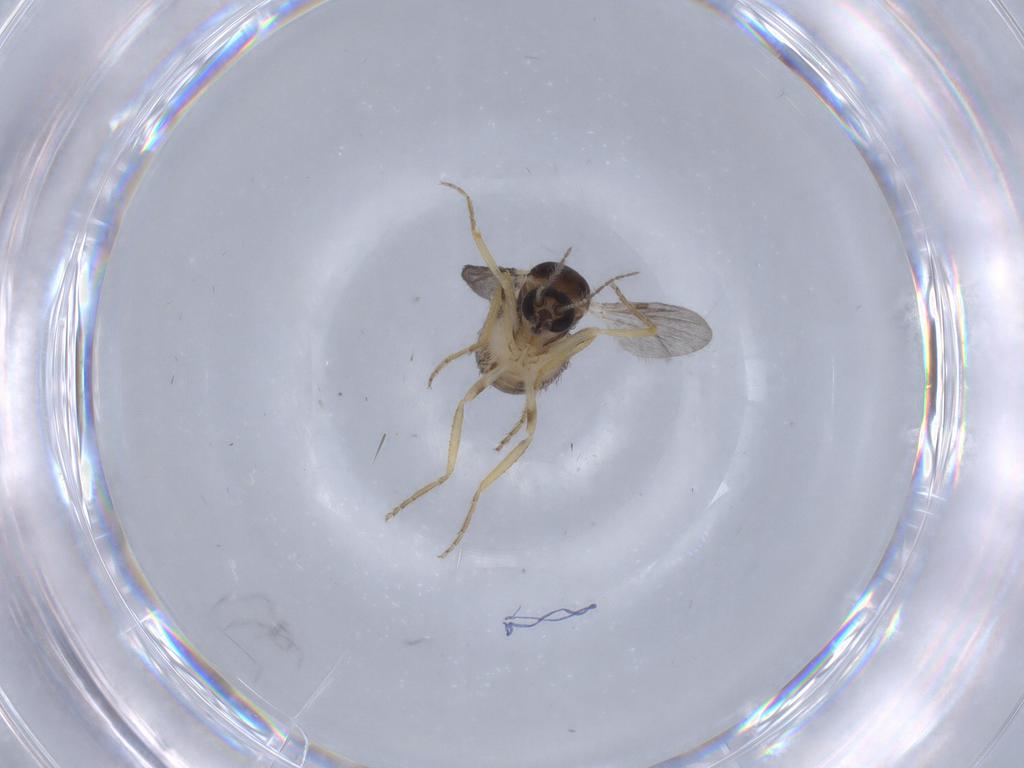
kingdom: Animalia
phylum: Arthropoda
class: Insecta
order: Diptera
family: Ceratopogonidae
